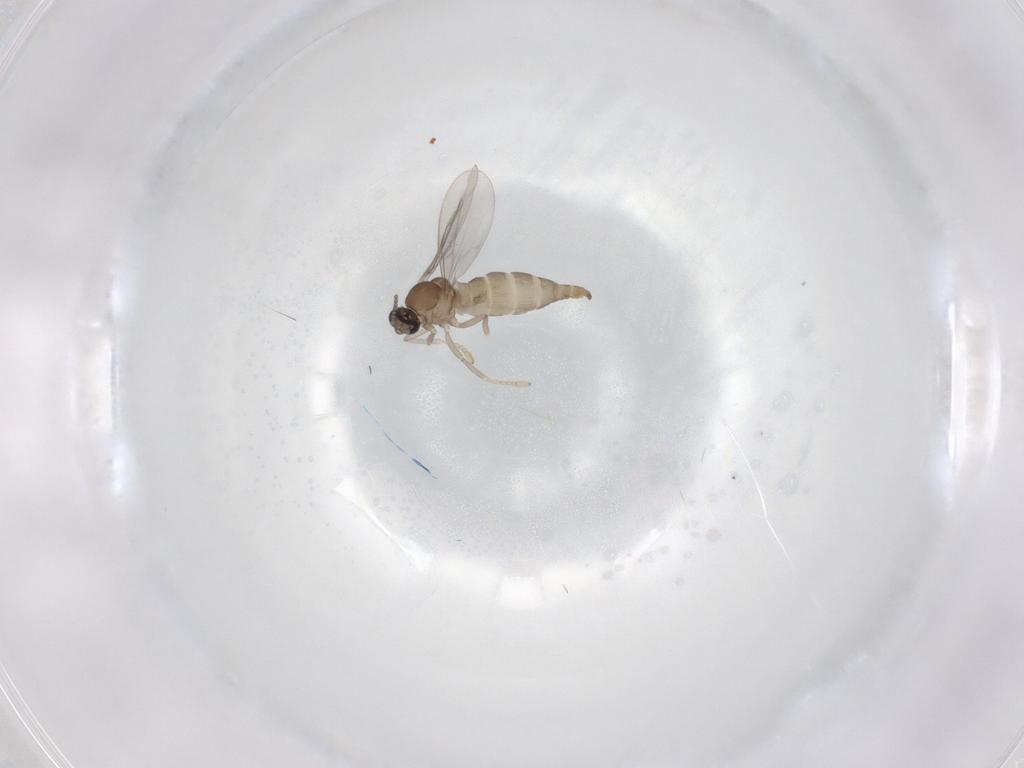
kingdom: Animalia
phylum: Arthropoda
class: Insecta
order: Diptera
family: Cecidomyiidae
